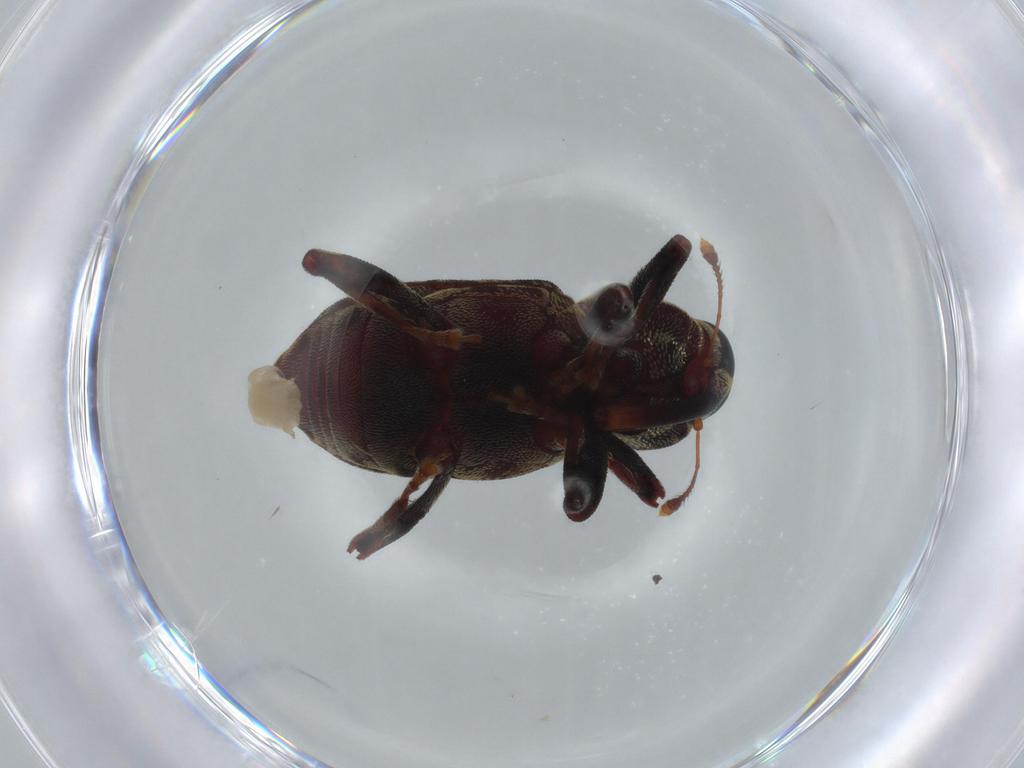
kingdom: Animalia
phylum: Arthropoda
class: Insecta
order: Coleoptera
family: Curculionidae
